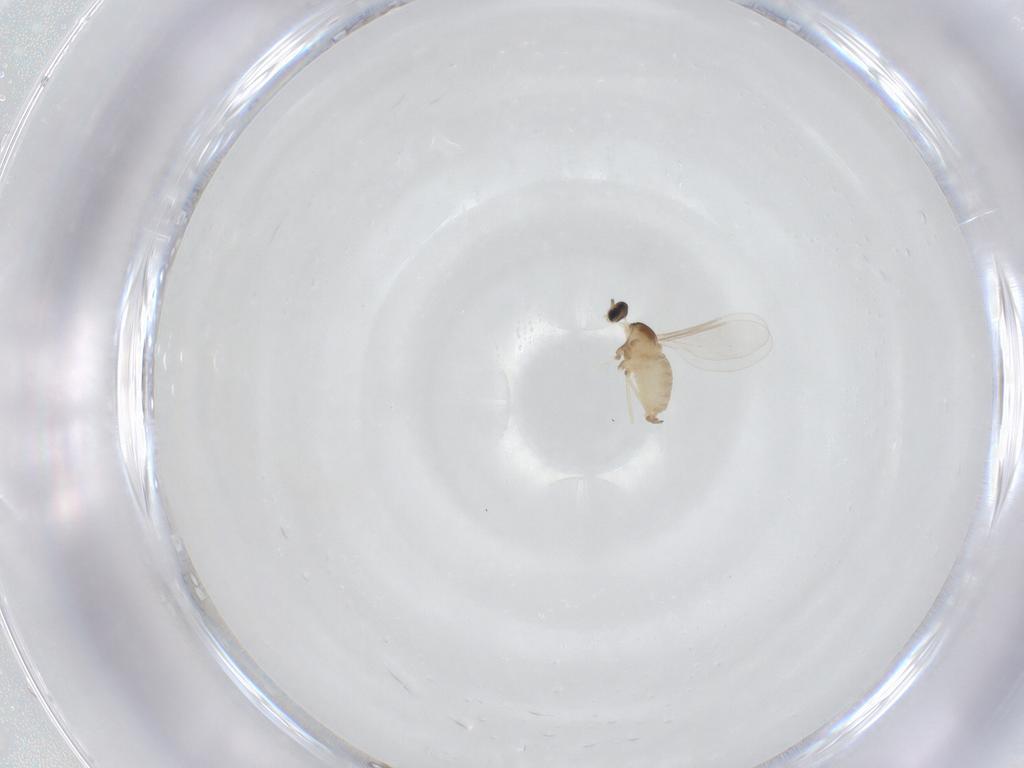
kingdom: Animalia
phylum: Arthropoda
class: Insecta
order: Diptera
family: Cecidomyiidae
